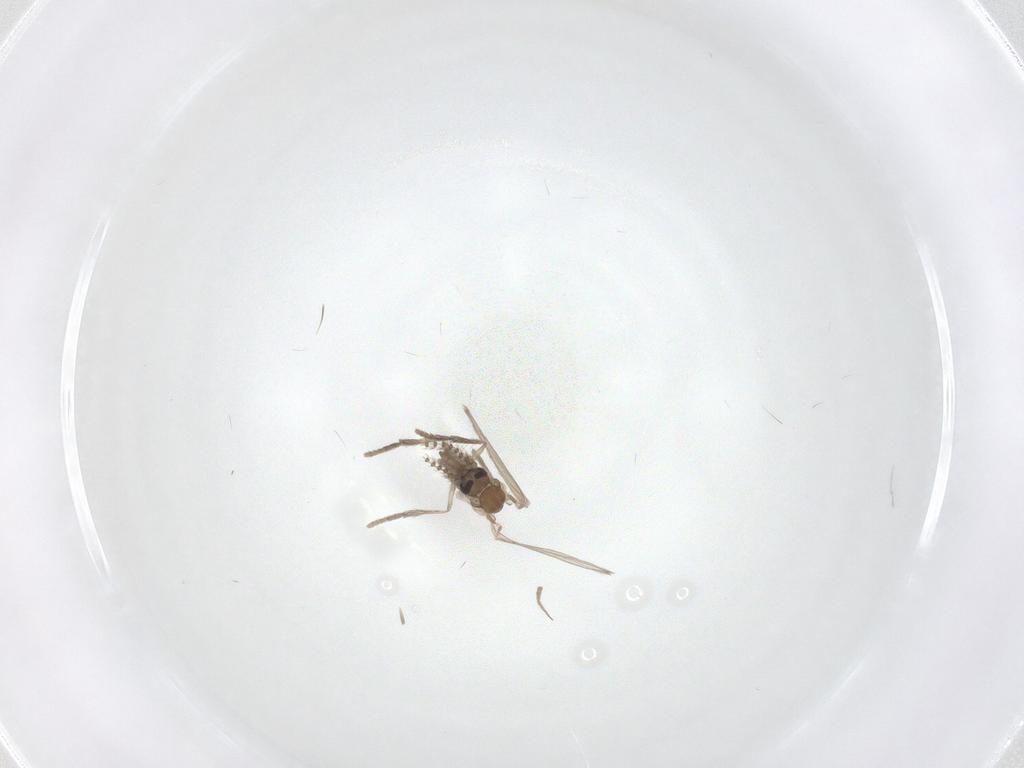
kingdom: Animalia
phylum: Arthropoda
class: Insecta
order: Diptera
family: Psychodidae
